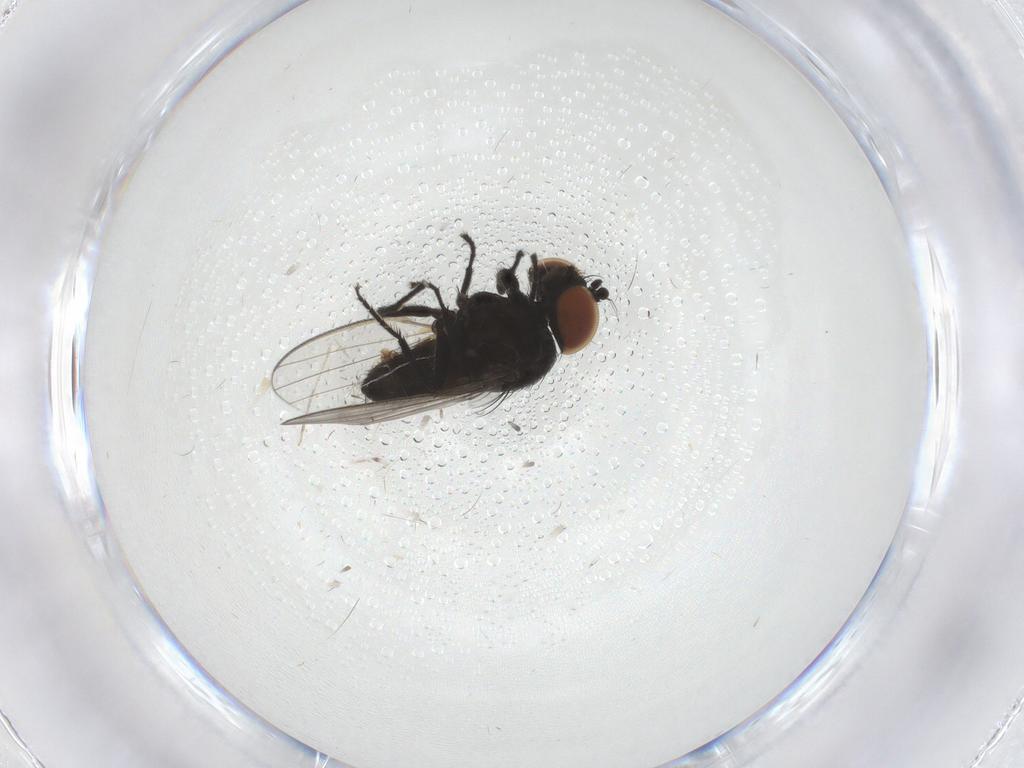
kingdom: Animalia
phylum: Arthropoda
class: Insecta
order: Diptera
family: Milichiidae
